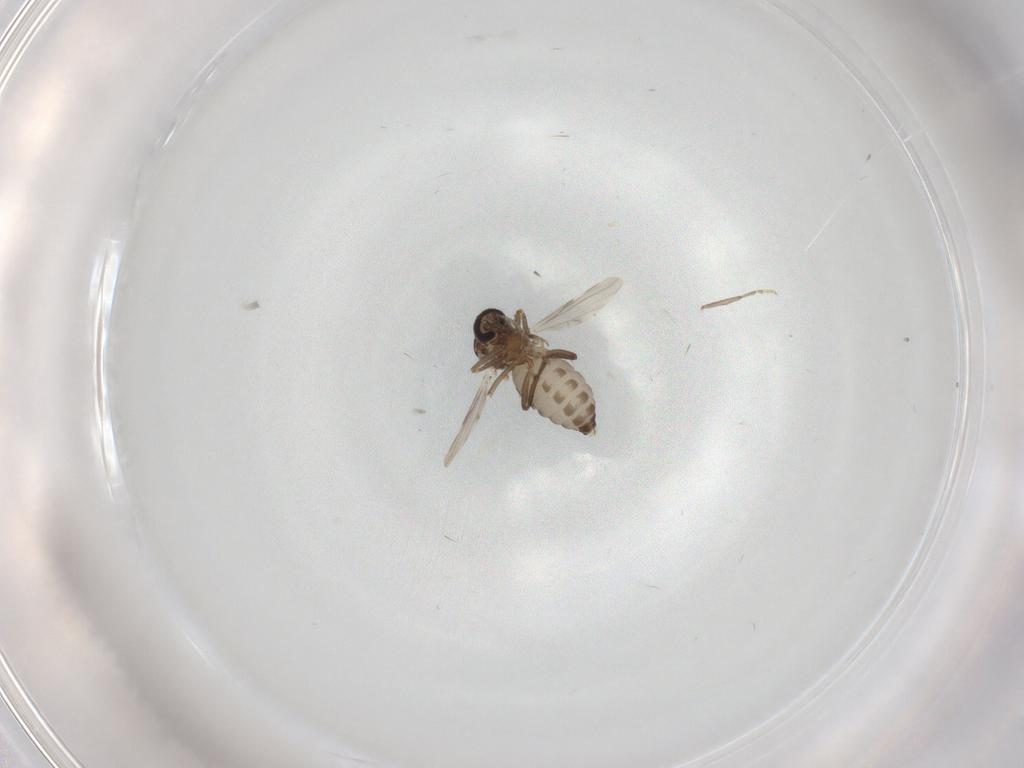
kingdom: Animalia
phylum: Arthropoda
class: Insecta
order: Diptera
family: Ceratopogonidae
